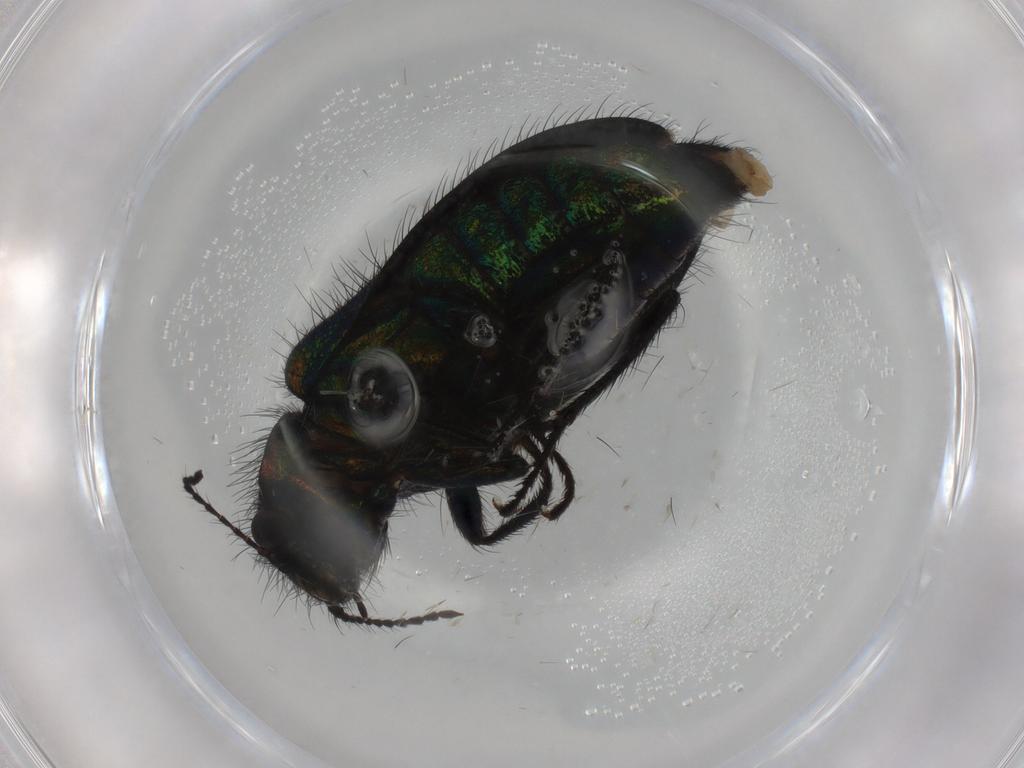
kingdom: Animalia
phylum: Arthropoda
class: Insecta
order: Coleoptera
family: Melyridae
